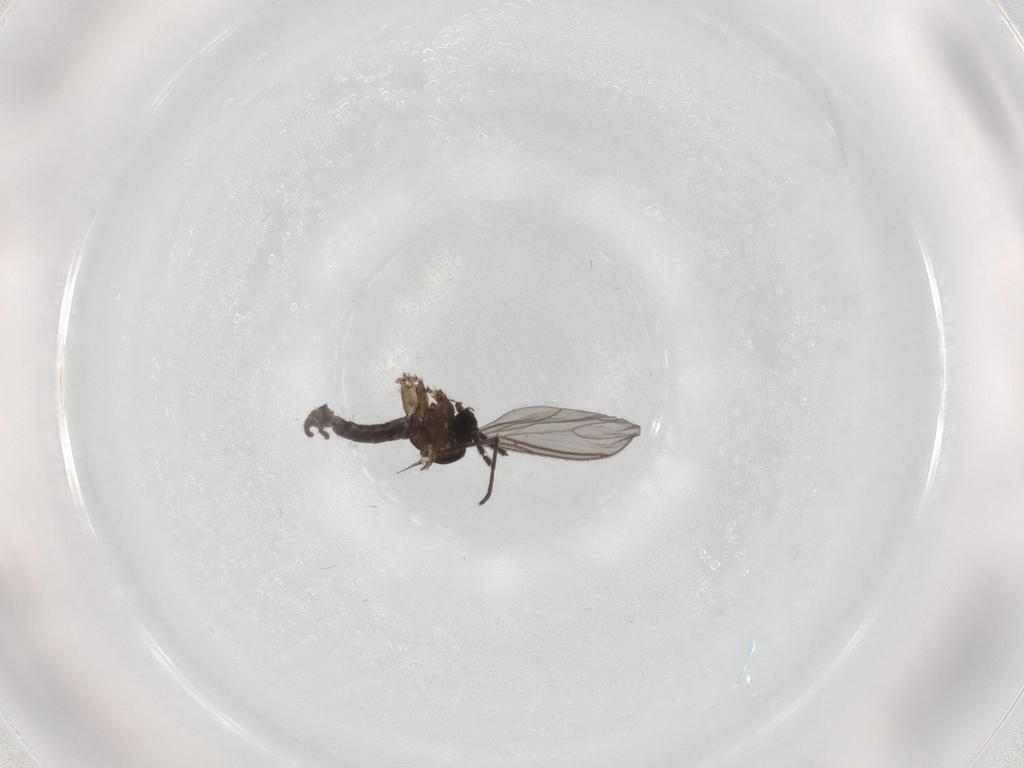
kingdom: Animalia
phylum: Arthropoda
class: Insecta
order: Diptera
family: Sciaridae
